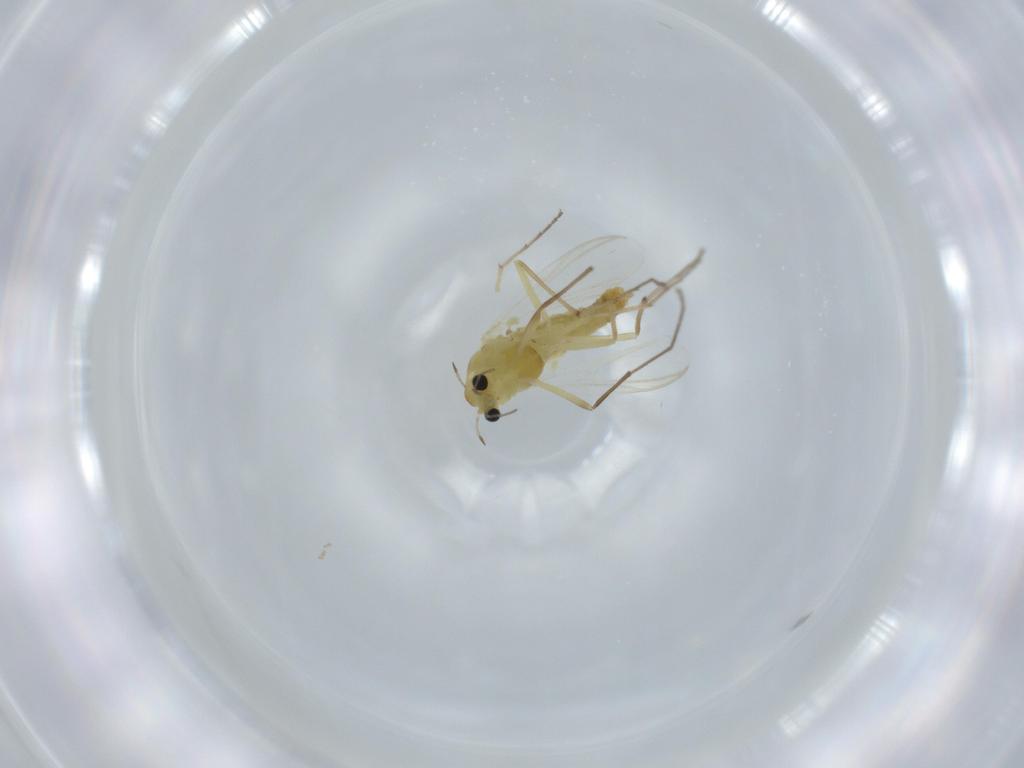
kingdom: Animalia
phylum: Arthropoda
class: Insecta
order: Diptera
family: Chironomidae
